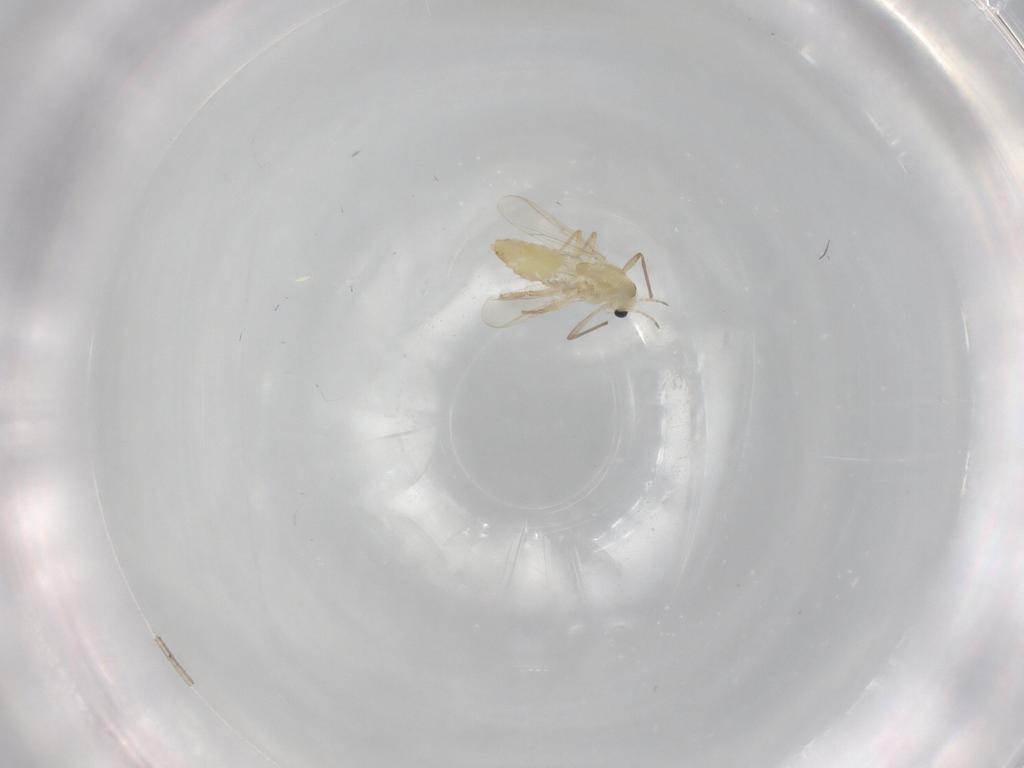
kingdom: Animalia
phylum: Arthropoda
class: Insecta
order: Diptera
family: Chironomidae
